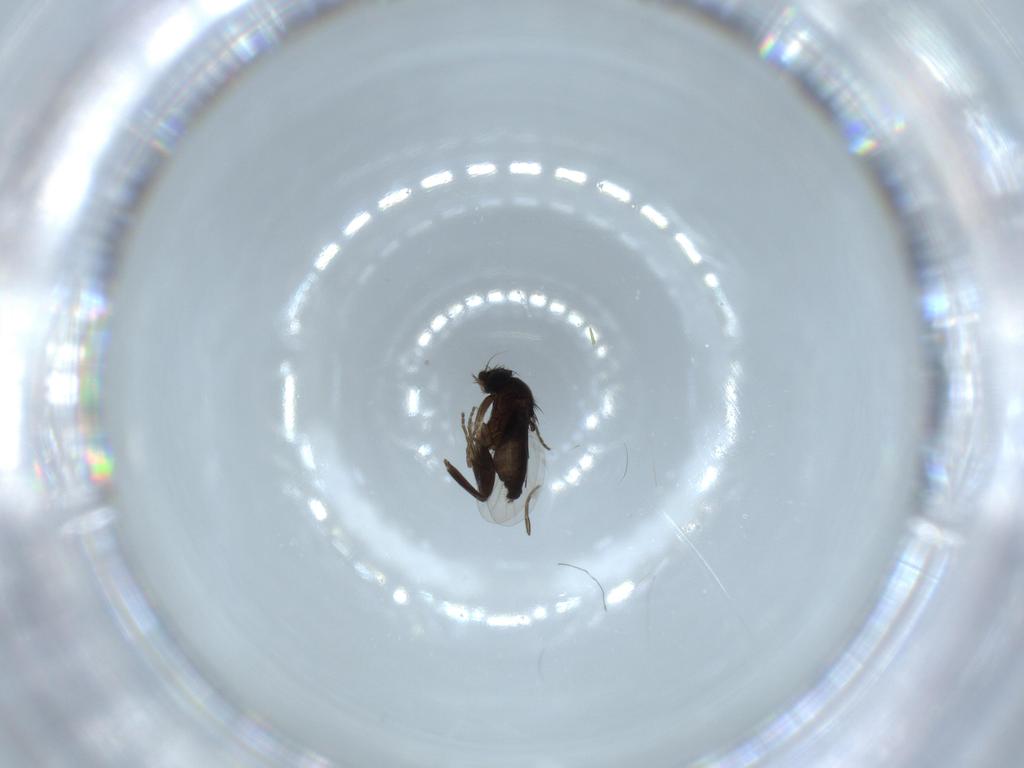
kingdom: Animalia
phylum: Arthropoda
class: Insecta
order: Diptera
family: Phoridae
